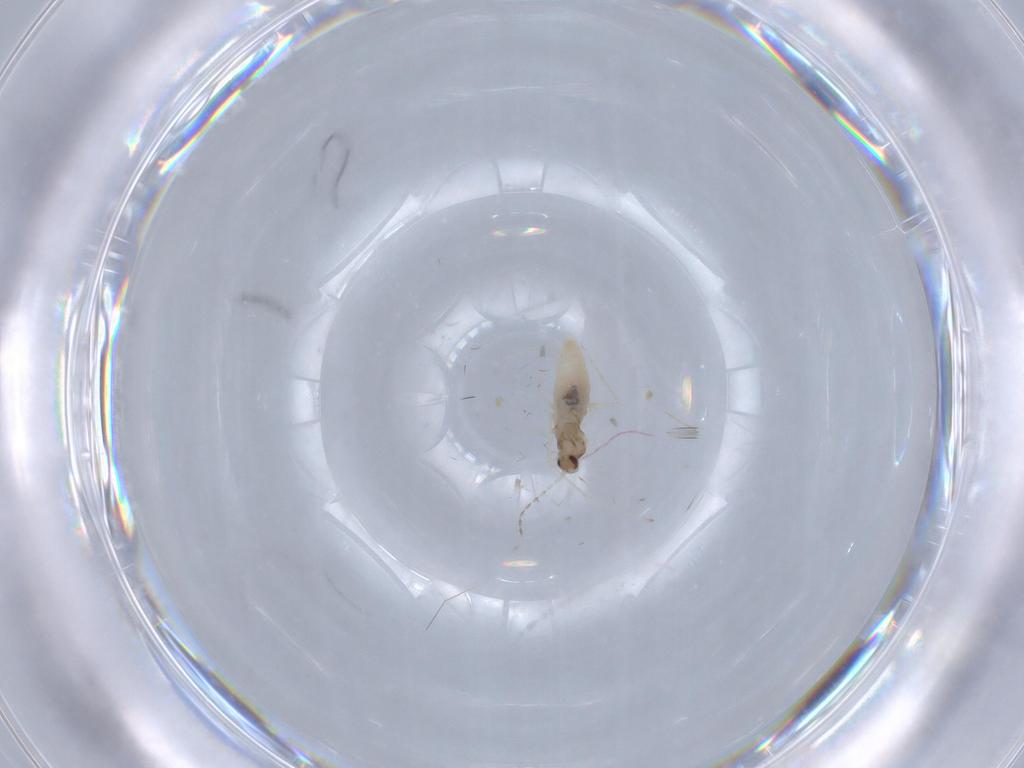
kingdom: Animalia
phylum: Arthropoda
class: Insecta
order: Diptera
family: Cecidomyiidae
